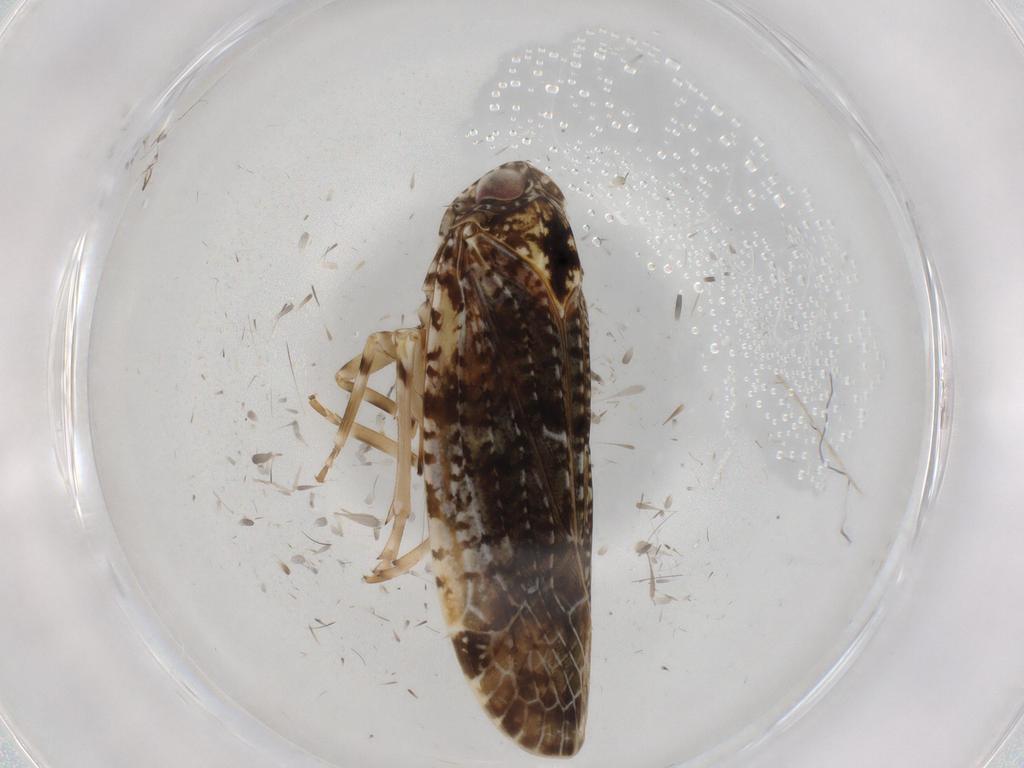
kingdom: Animalia
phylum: Arthropoda
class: Insecta
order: Hemiptera
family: Achilidae
